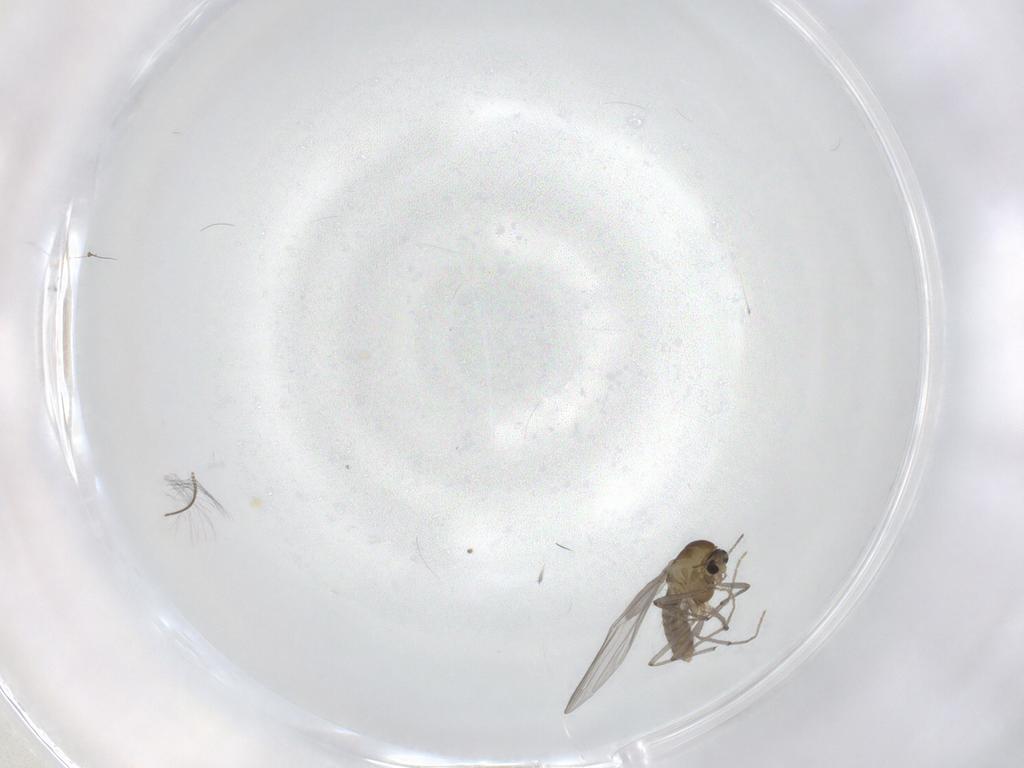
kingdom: Animalia
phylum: Arthropoda
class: Insecta
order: Diptera
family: Chironomidae
